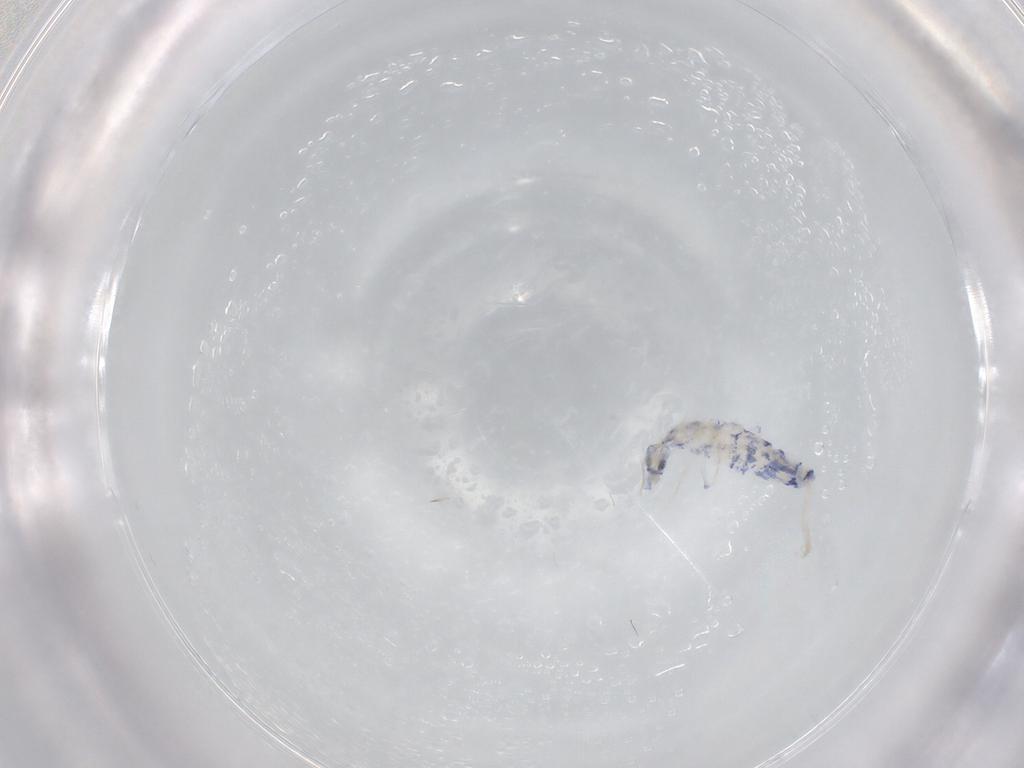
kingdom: Animalia
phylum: Arthropoda
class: Collembola
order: Entomobryomorpha
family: Entomobryidae
